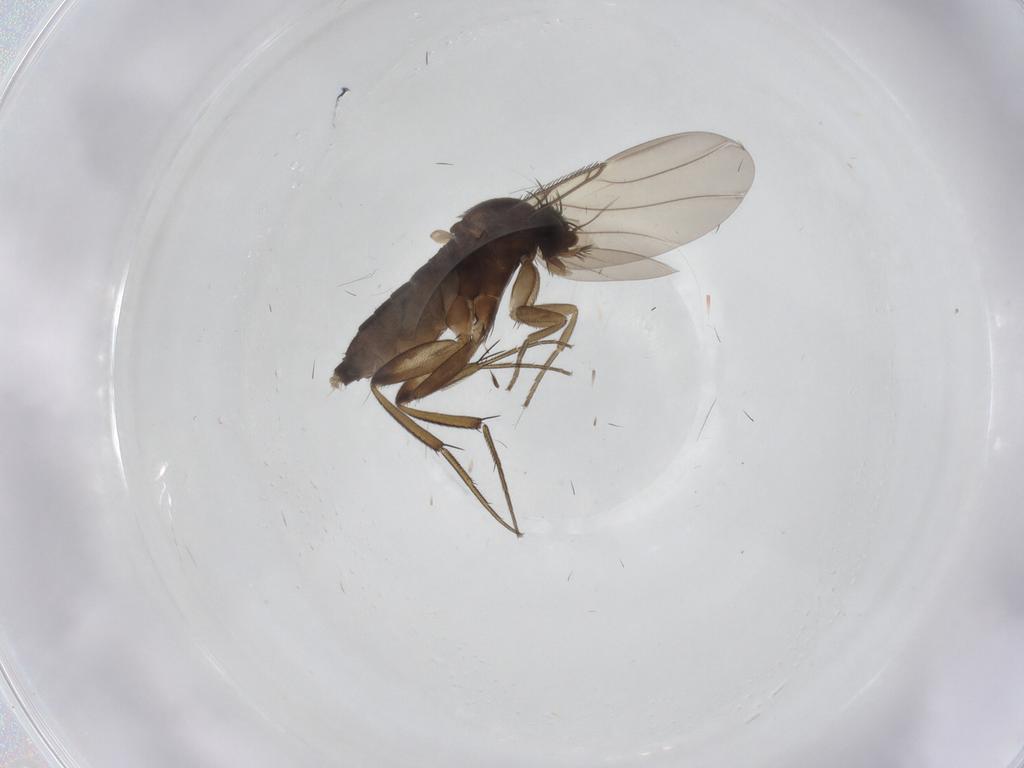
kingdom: Animalia
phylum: Arthropoda
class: Insecta
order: Diptera
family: Phoridae
